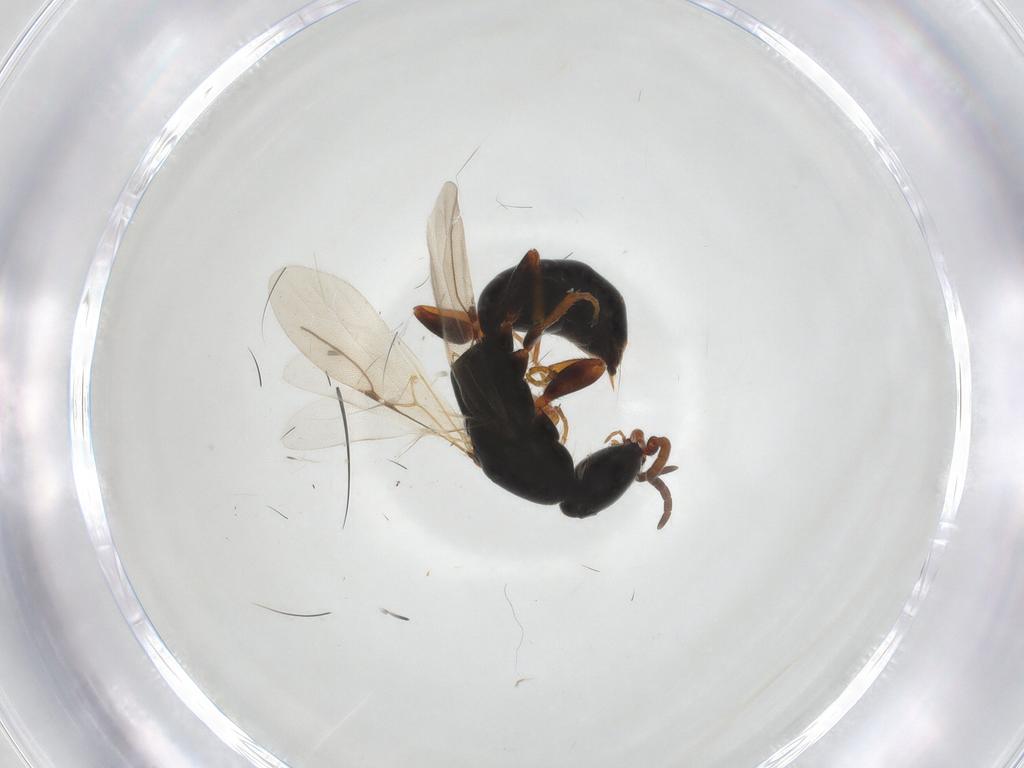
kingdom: Animalia
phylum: Arthropoda
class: Insecta
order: Hymenoptera
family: Bethylidae
